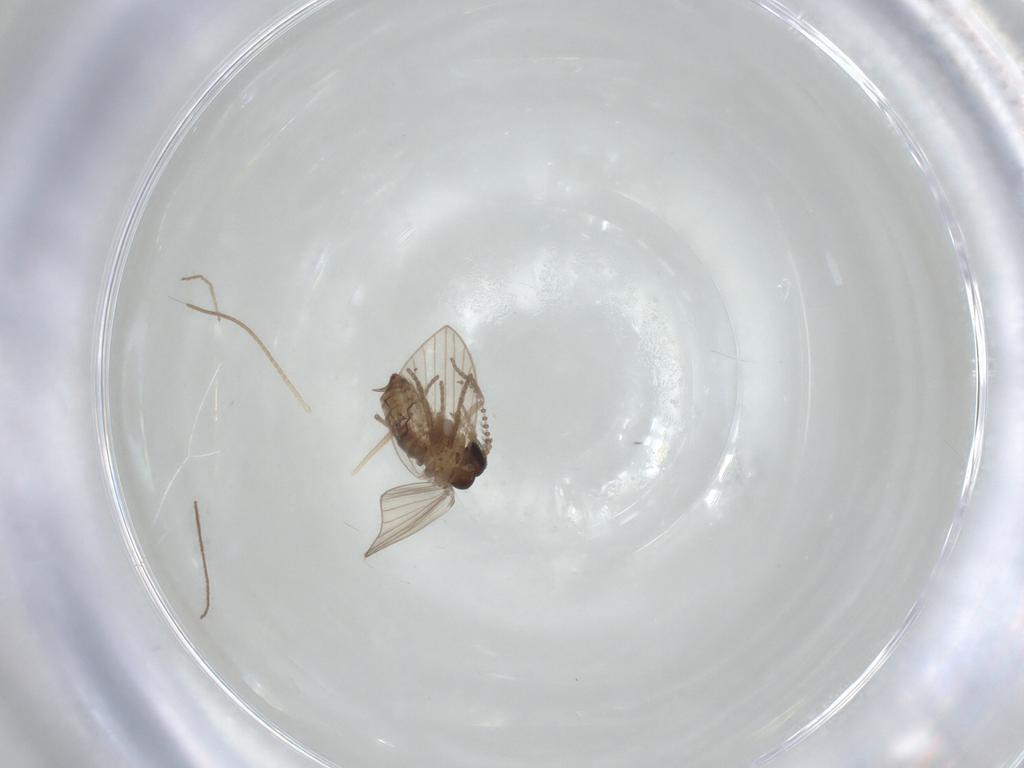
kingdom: Animalia
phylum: Arthropoda
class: Insecta
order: Diptera
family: Psychodidae
